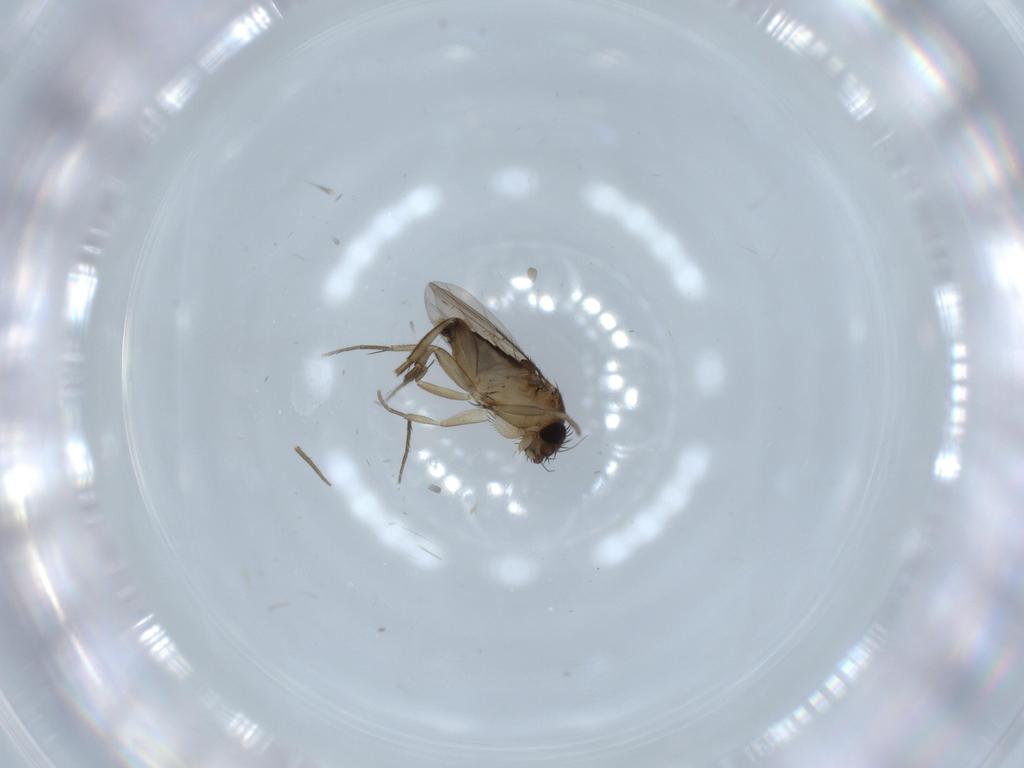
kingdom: Animalia
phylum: Arthropoda
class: Insecta
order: Diptera
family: Phoridae
